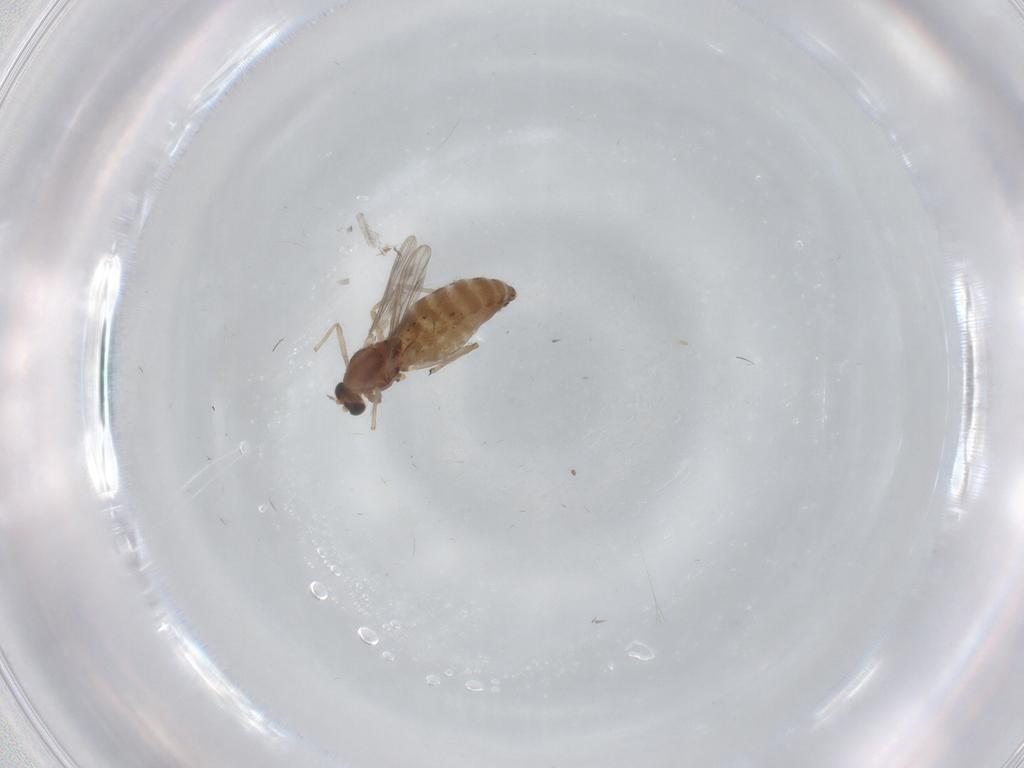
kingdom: Animalia
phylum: Arthropoda
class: Insecta
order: Diptera
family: Chironomidae
